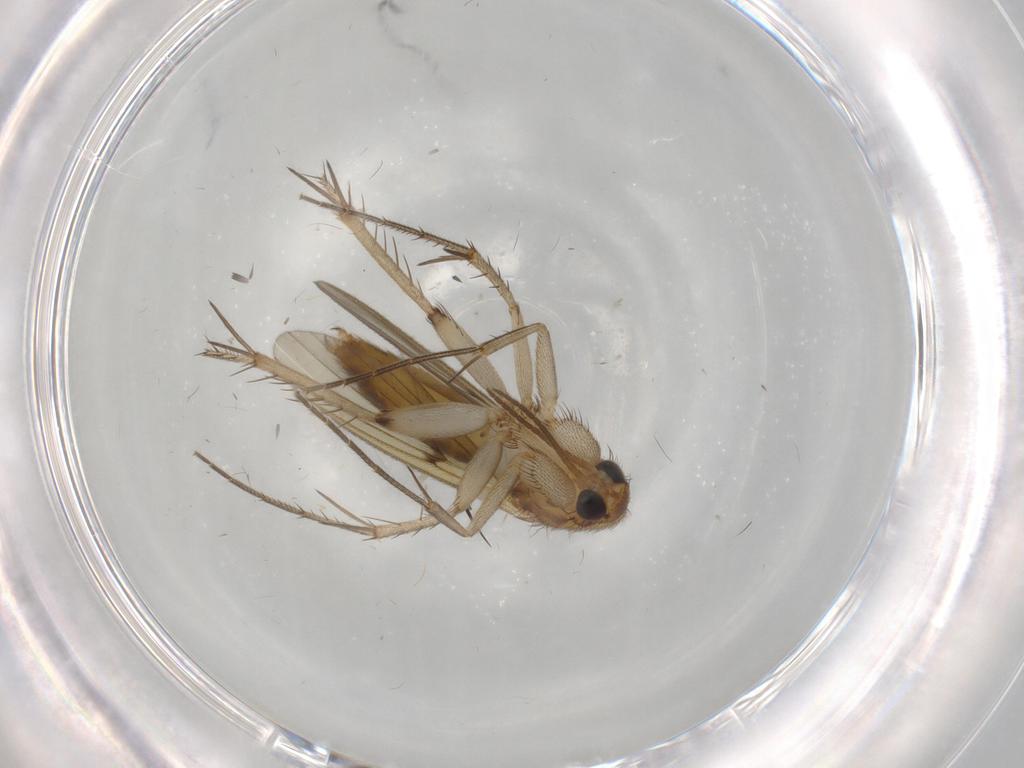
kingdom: Animalia
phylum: Arthropoda
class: Insecta
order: Diptera
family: Mycetophilidae
